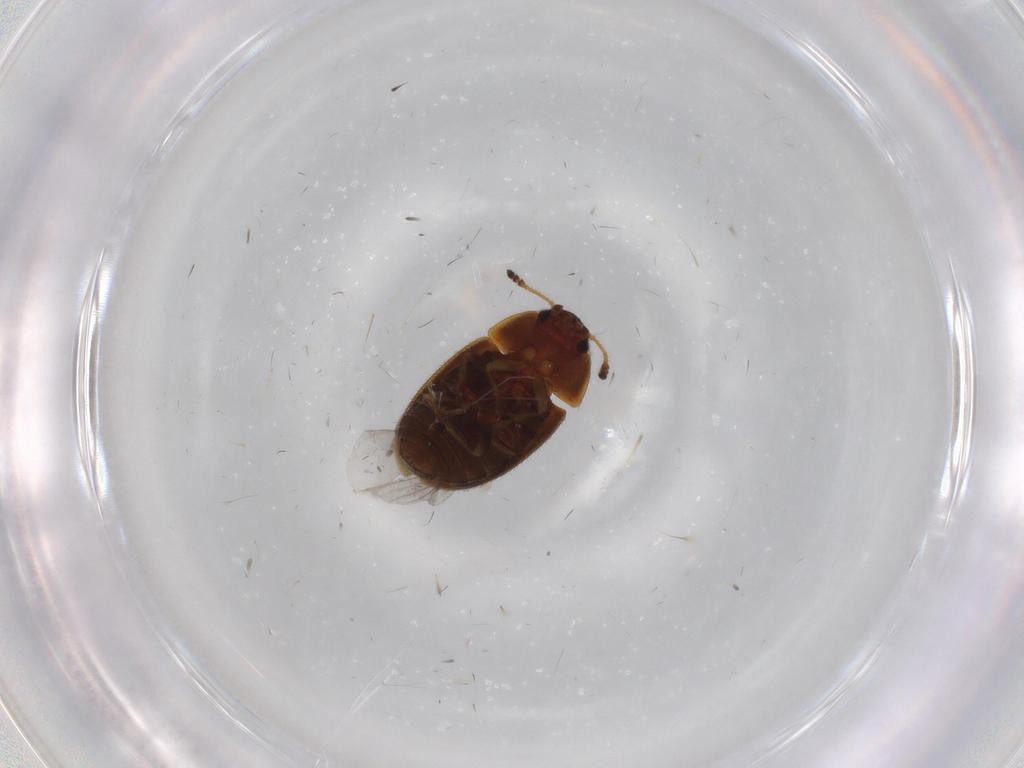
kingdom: Animalia
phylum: Arthropoda
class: Insecta
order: Coleoptera
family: Mycetophagidae
